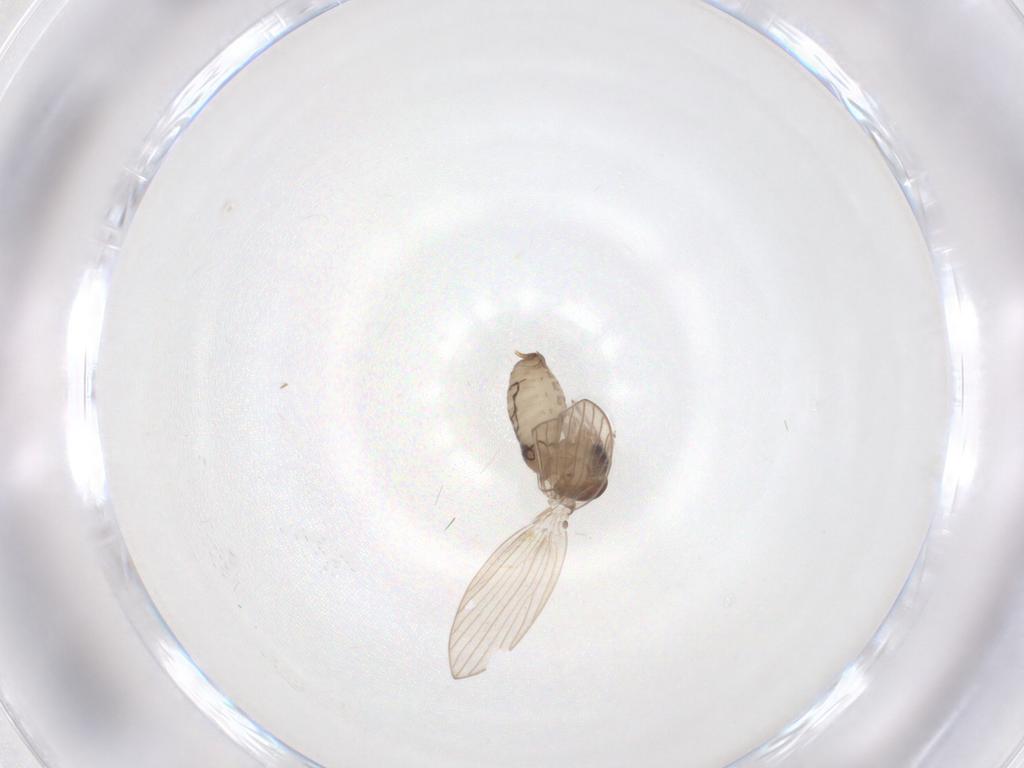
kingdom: Animalia
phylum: Arthropoda
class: Insecta
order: Diptera
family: Psychodidae
